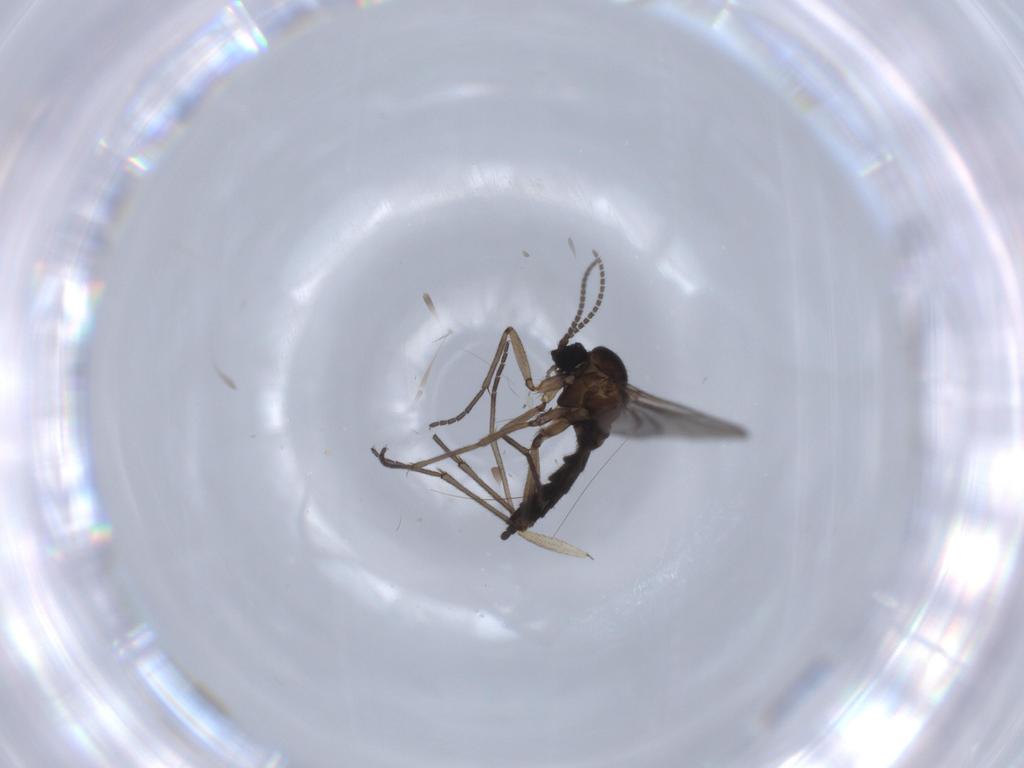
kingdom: Animalia
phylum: Arthropoda
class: Insecta
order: Diptera
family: Sciaridae
